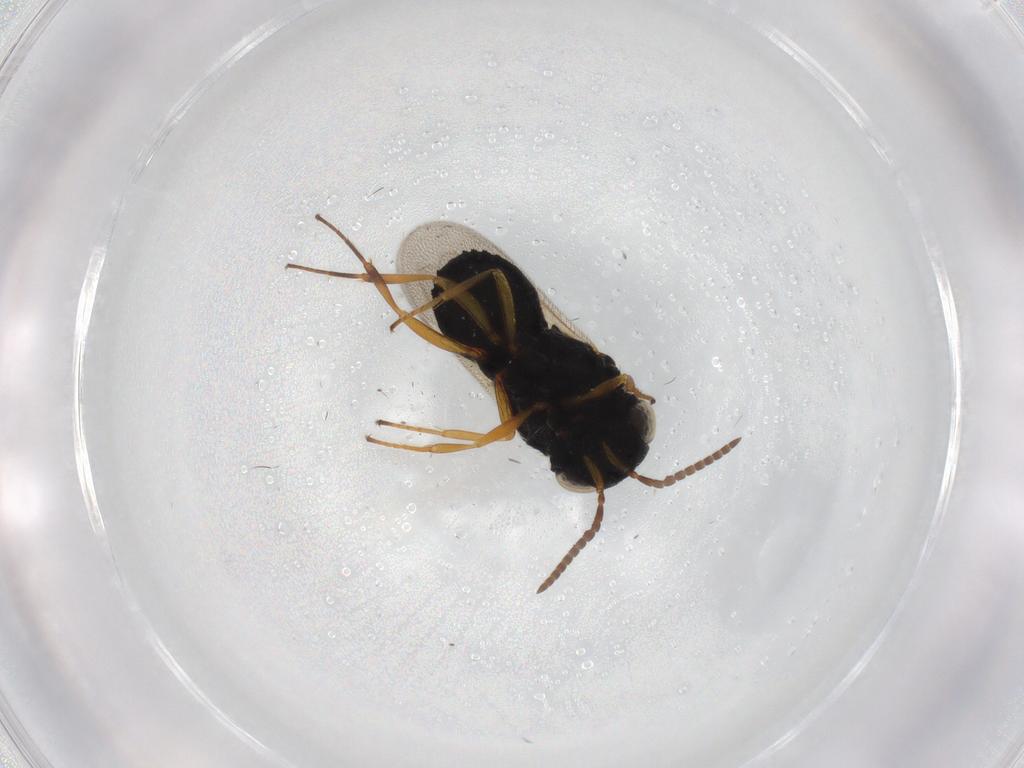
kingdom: Animalia
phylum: Arthropoda
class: Insecta
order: Hymenoptera
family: Scelionidae
